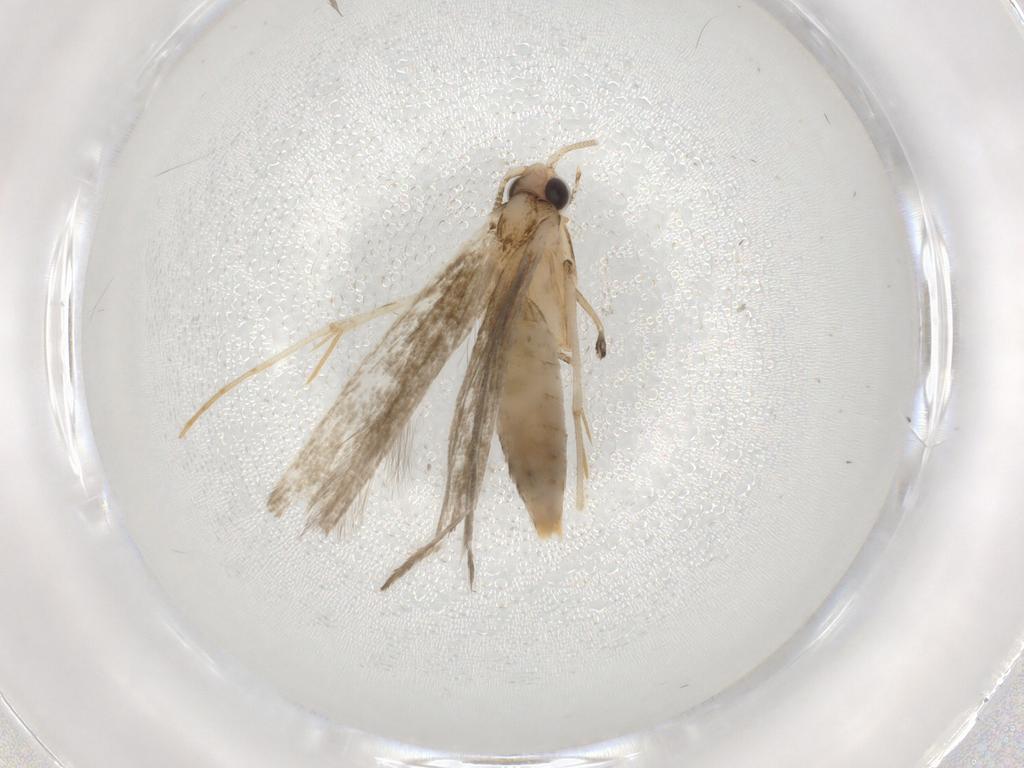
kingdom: Animalia
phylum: Arthropoda
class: Insecta
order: Lepidoptera
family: Tineidae
